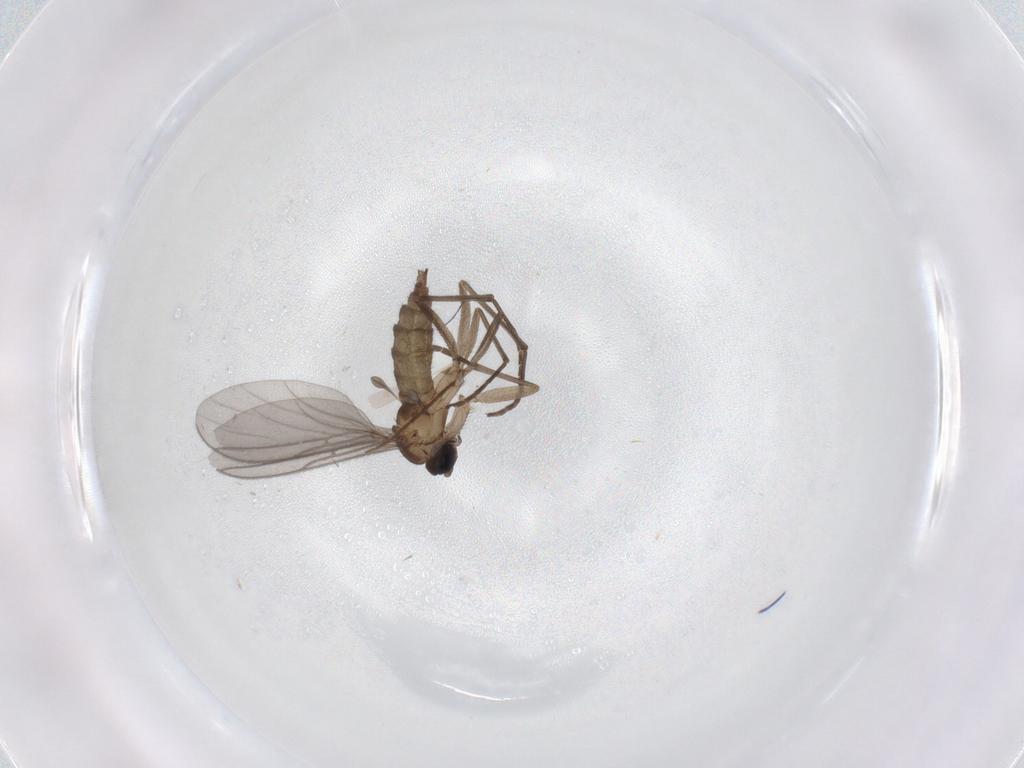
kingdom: Animalia
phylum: Arthropoda
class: Insecta
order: Diptera
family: Sciaridae
